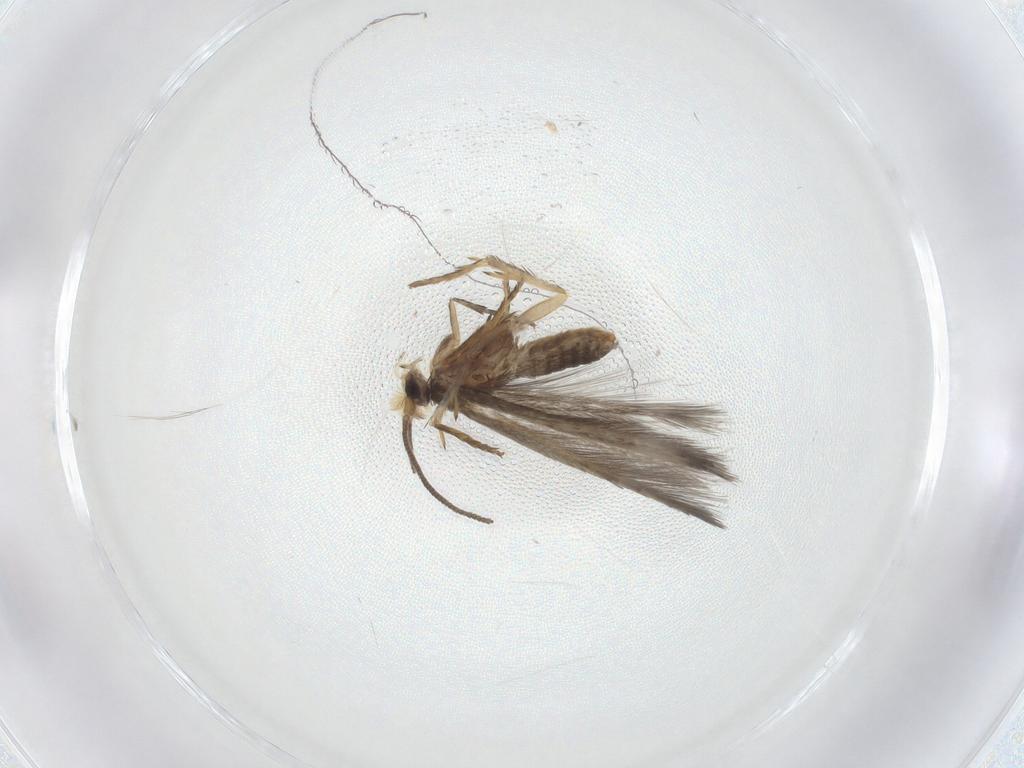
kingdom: Animalia
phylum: Arthropoda
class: Insecta
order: Lepidoptera
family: Nepticulidae
